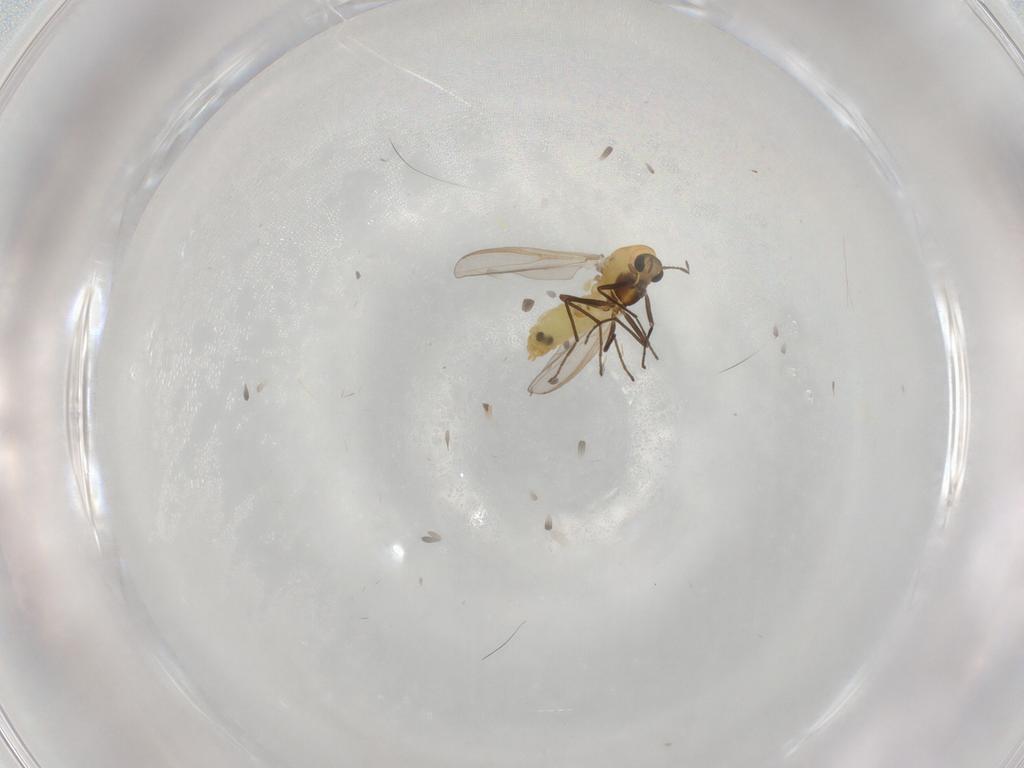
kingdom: Animalia
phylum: Arthropoda
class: Insecta
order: Diptera
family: Chironomidae
